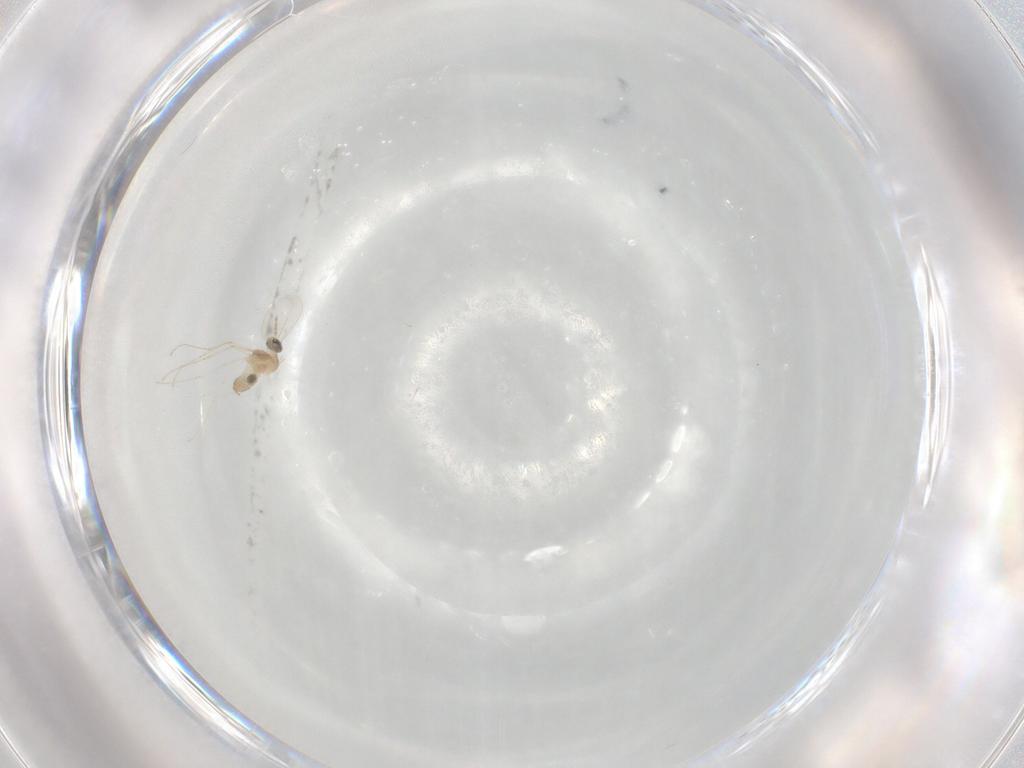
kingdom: Animalia
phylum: Arthropoda
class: Insecta
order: Diptera
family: Cecidomyiidae
